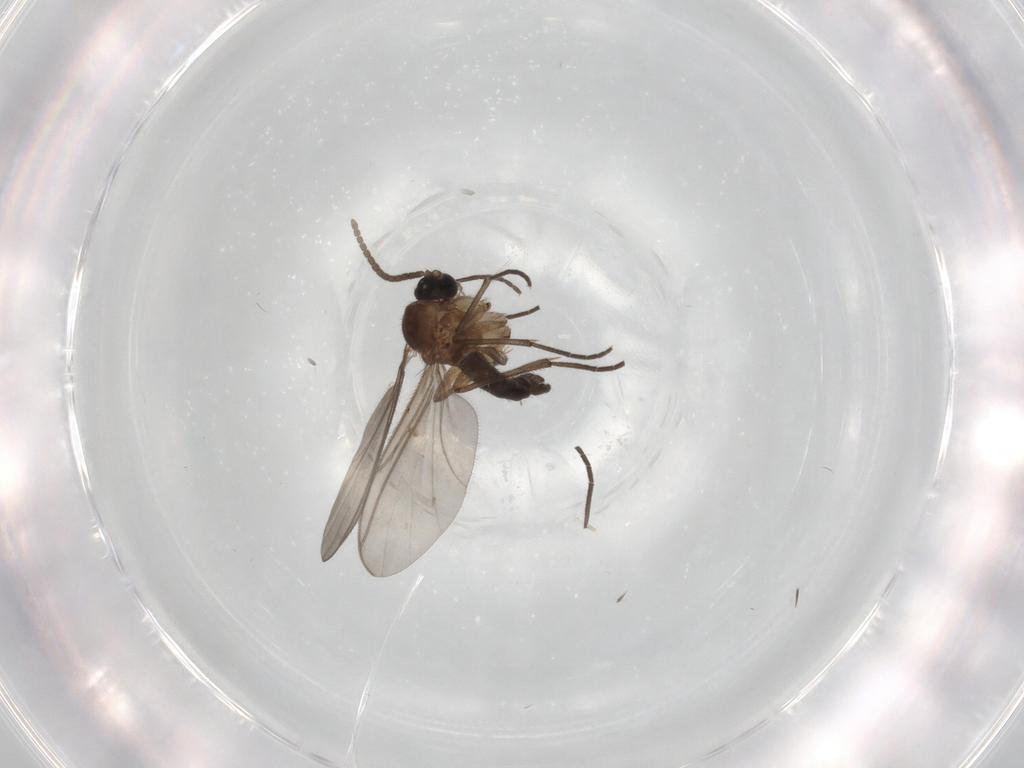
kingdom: Animalia
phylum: Arthropoda
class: Insecta
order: Diptera
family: Sciaridae
